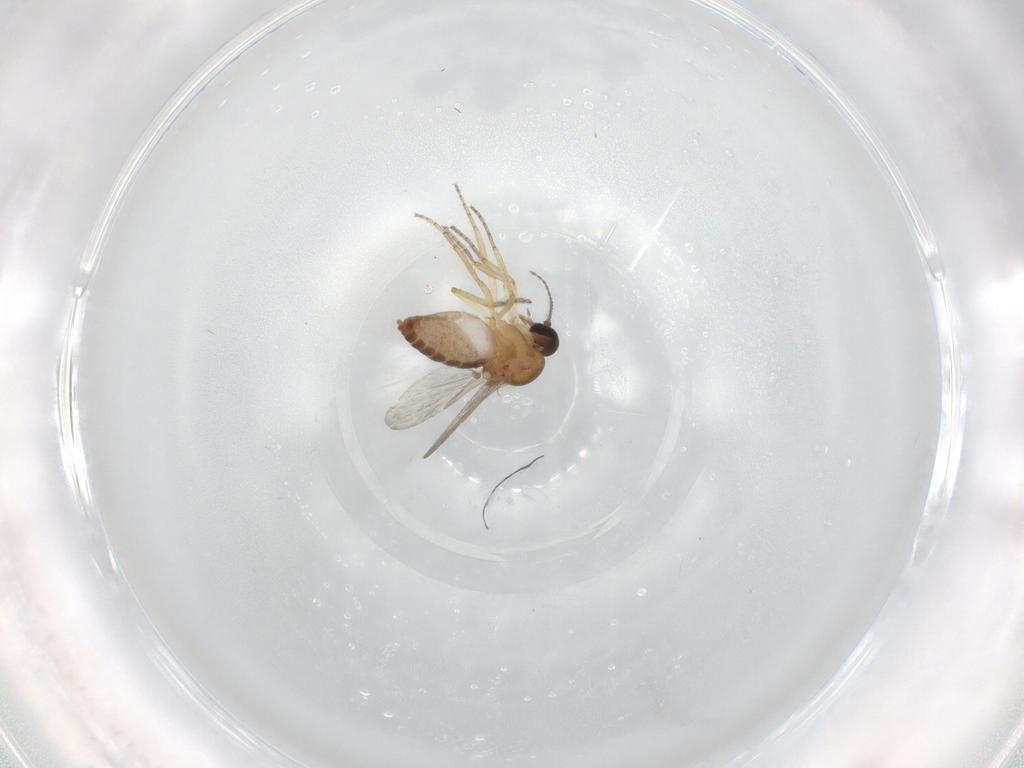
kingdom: Animalia
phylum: Arthropoda
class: Insecta
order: Diptera
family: Ceratopogonidae
